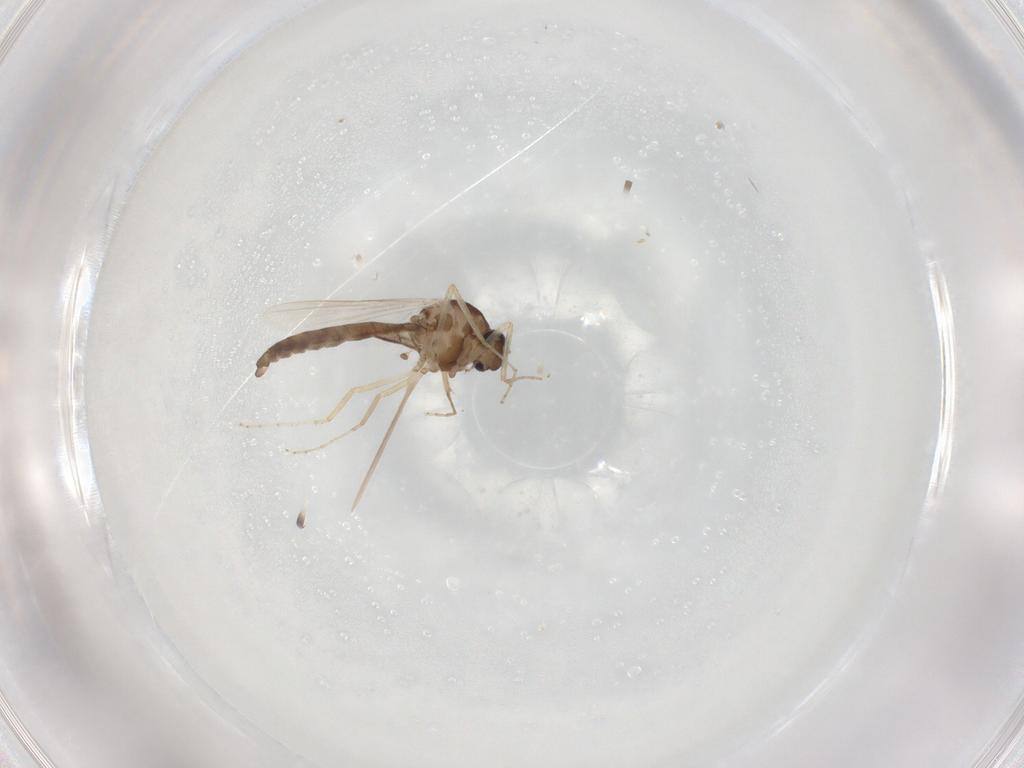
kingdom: Animalia
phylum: Arthropoda
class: Insecta
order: Diptera
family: Ceratopogonidae
